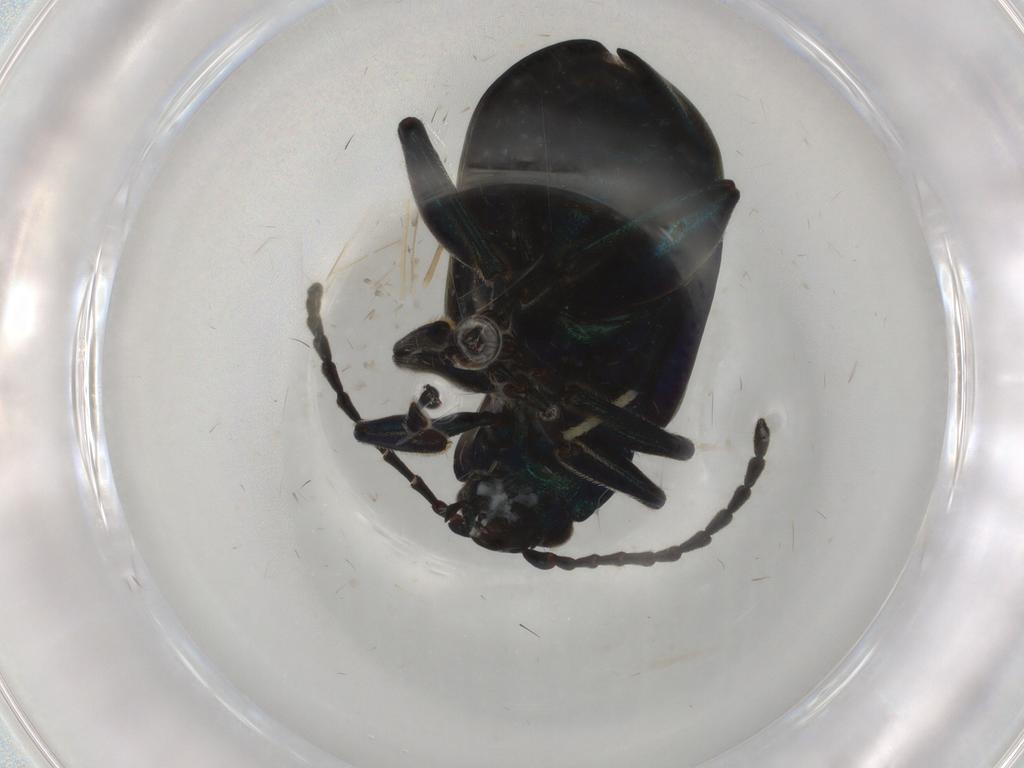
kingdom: Animalia
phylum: Arthropoda
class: Insecta
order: Coleoptera
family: Chrysomelidae
